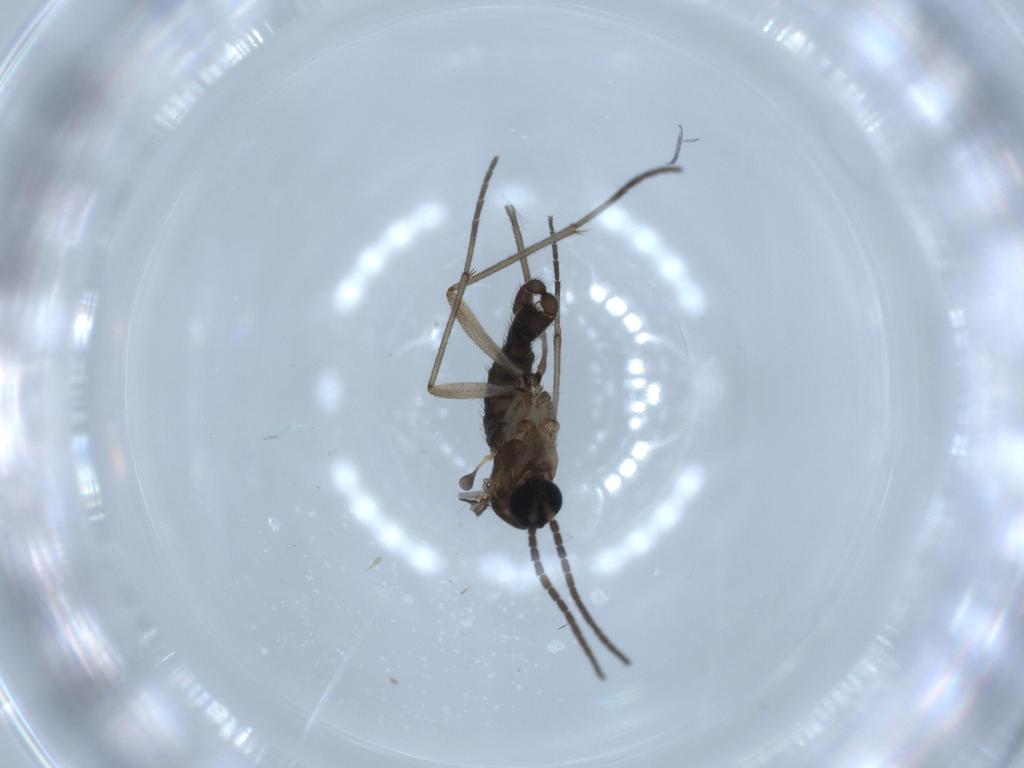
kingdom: Animalia
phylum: Arthropoda
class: Insecta
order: Diptera
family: Sciaridae
